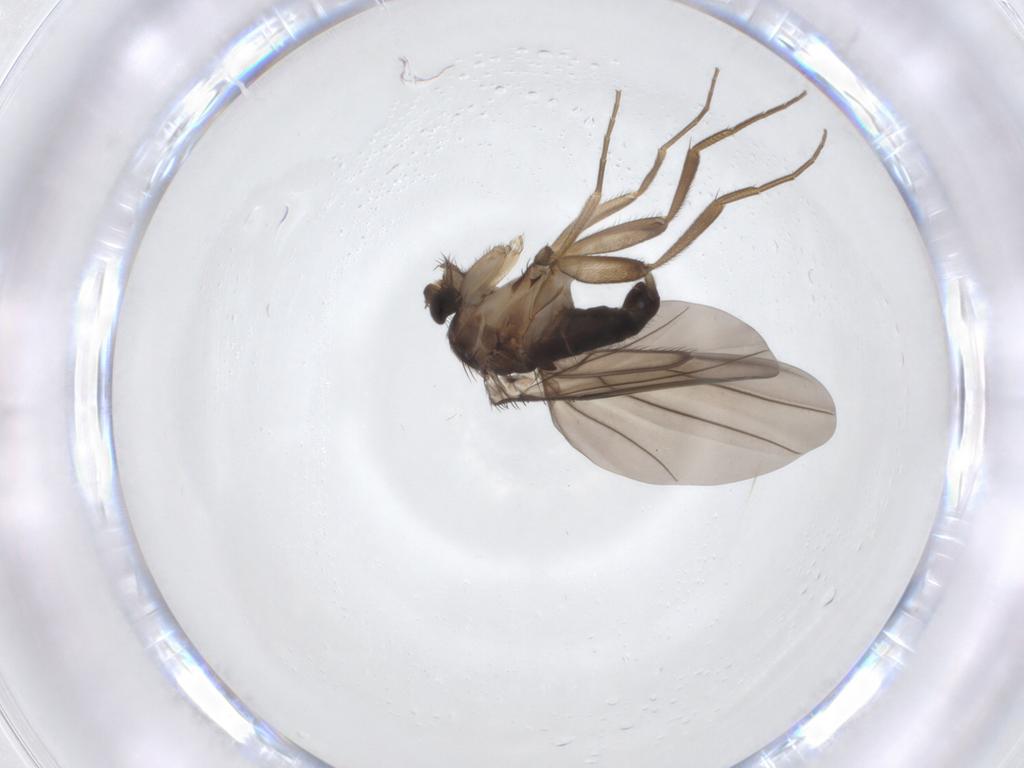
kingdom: Animalia
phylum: Arthropoda
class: Insecta
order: Diptera
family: Phoridae
